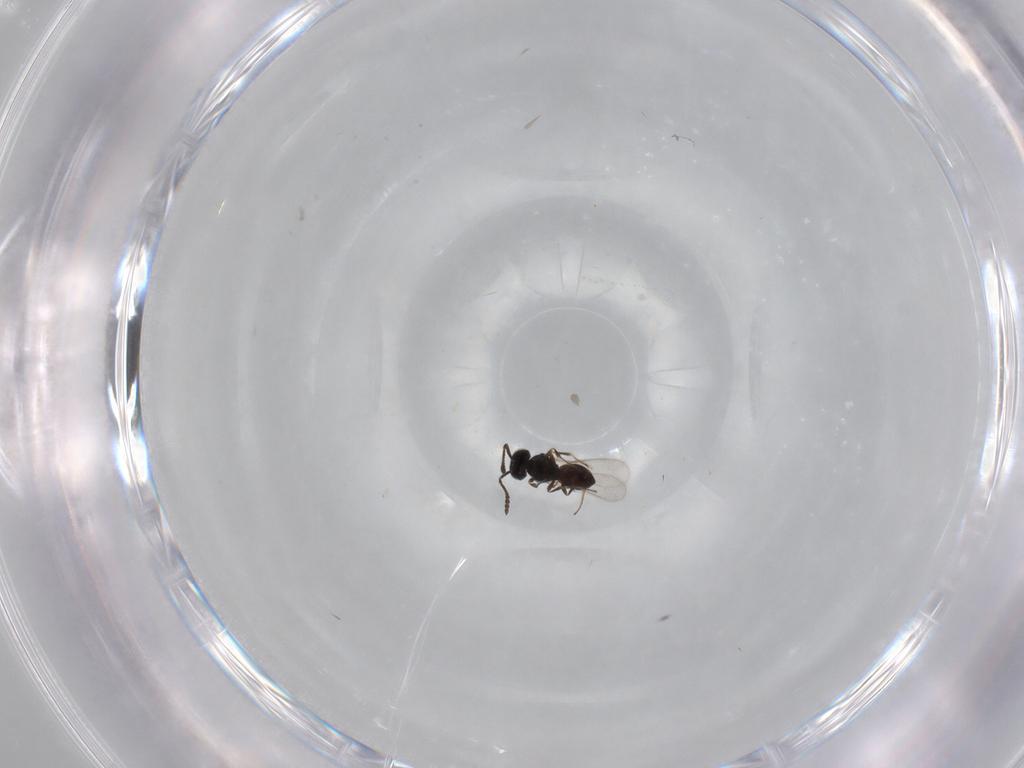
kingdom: Animalia
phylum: Arthropoda
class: Insecta
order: Hymenoptera
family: Scelionidae
